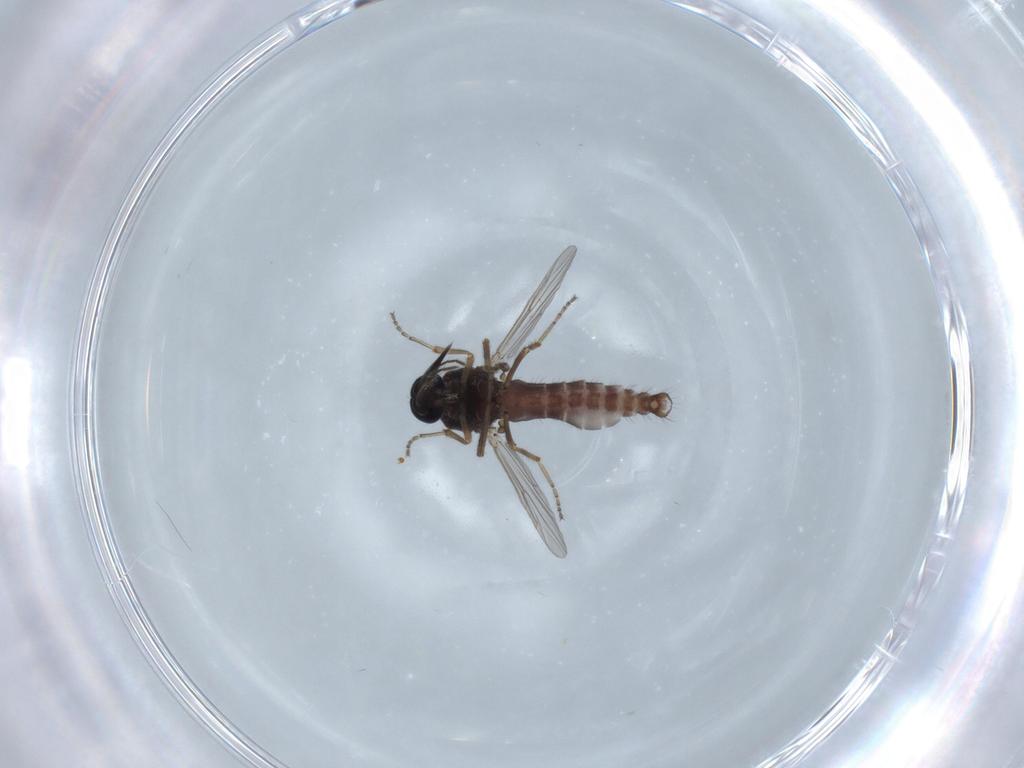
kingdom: Animalia
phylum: Arthropoda
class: Insecta
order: Diptera
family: Ceratopogonidae
